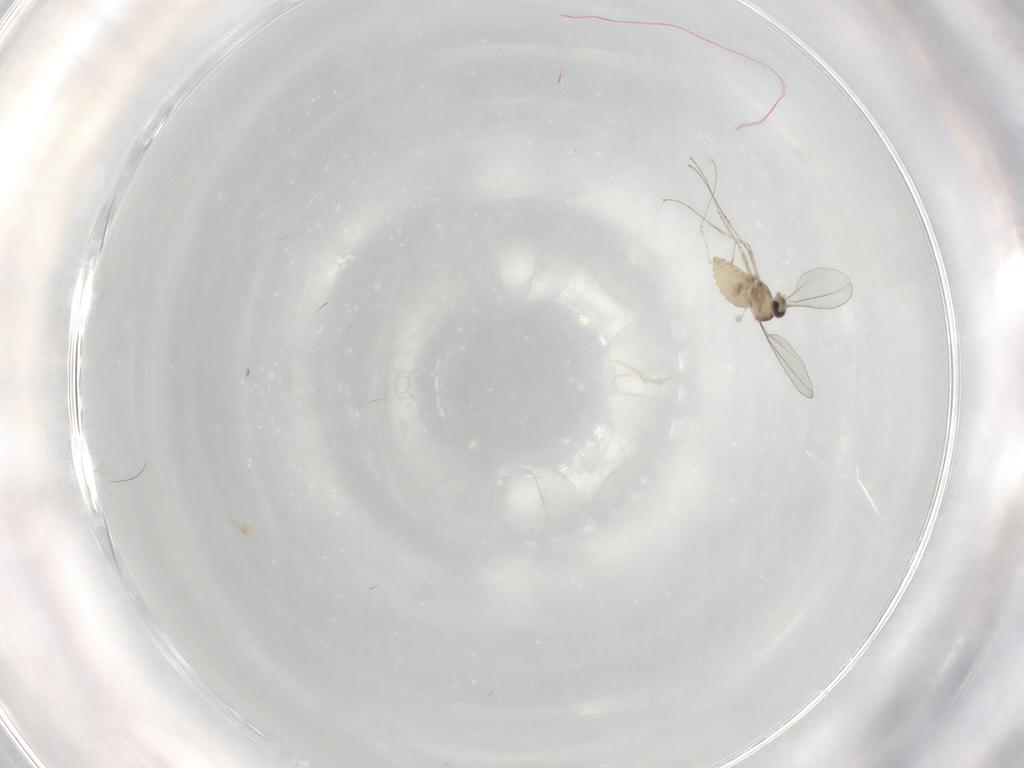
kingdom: Animalia
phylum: Arthropoda
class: Insecta
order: Diptera
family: Cecidomyiidae
